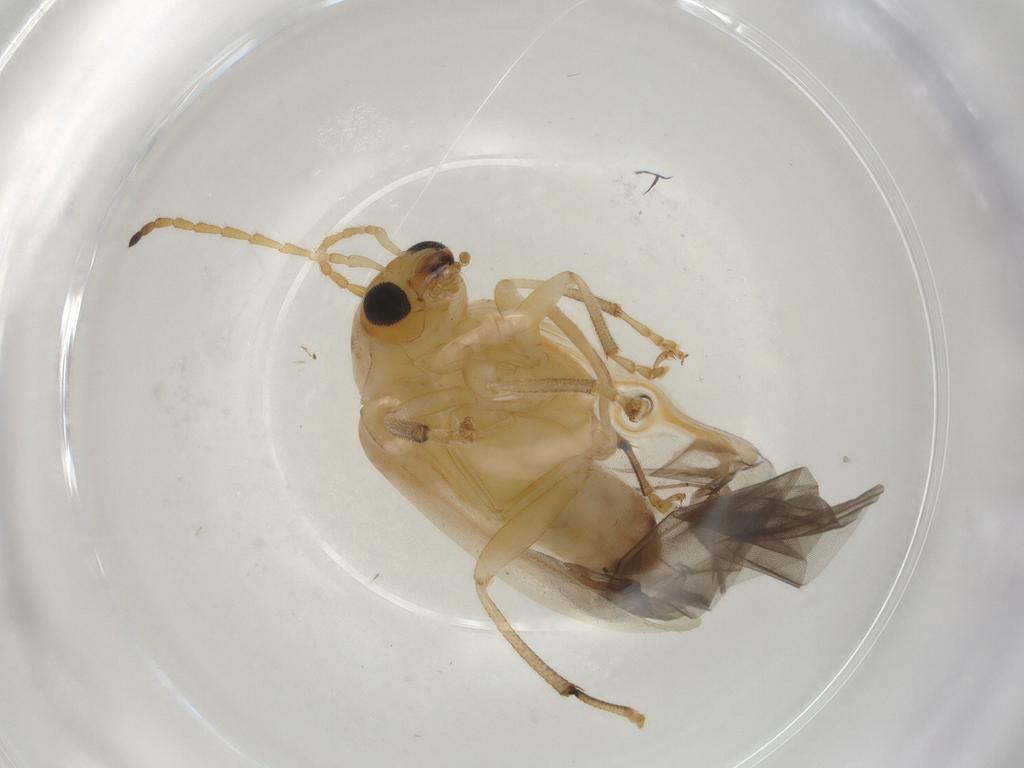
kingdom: Animalia
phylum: Arthropoda
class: Insecta
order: Coleoptera
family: Chrysomelidae
